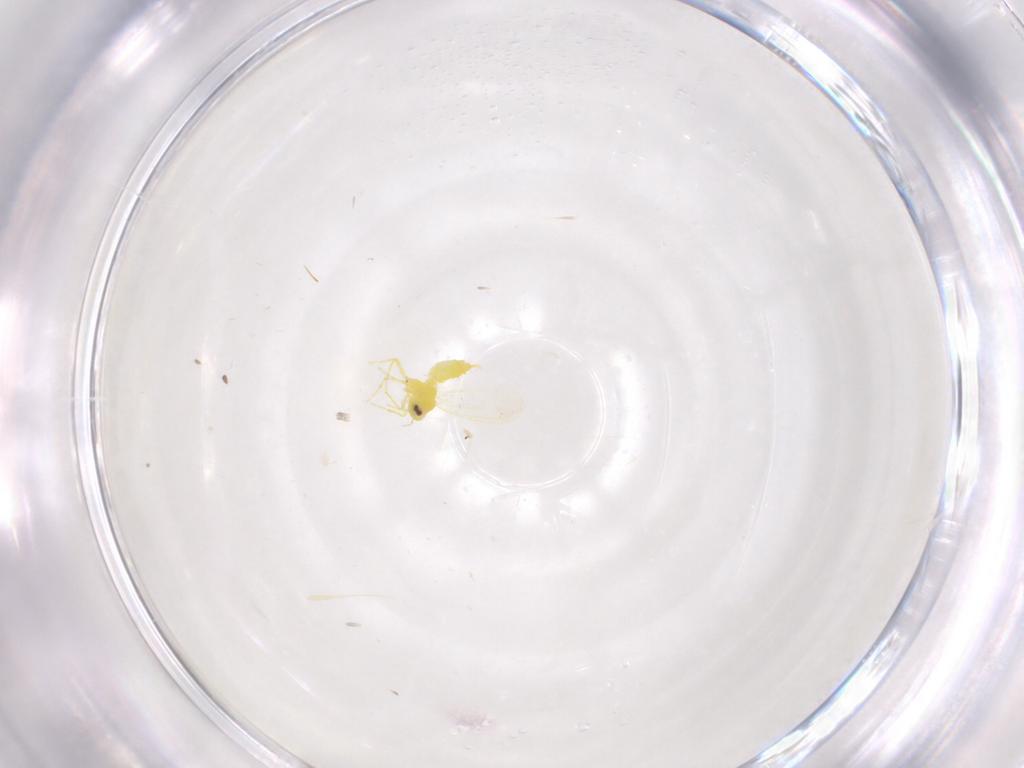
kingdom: Animalia
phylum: Arthropoda
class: Insecta
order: Hemiptera
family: Aleyrodidae
